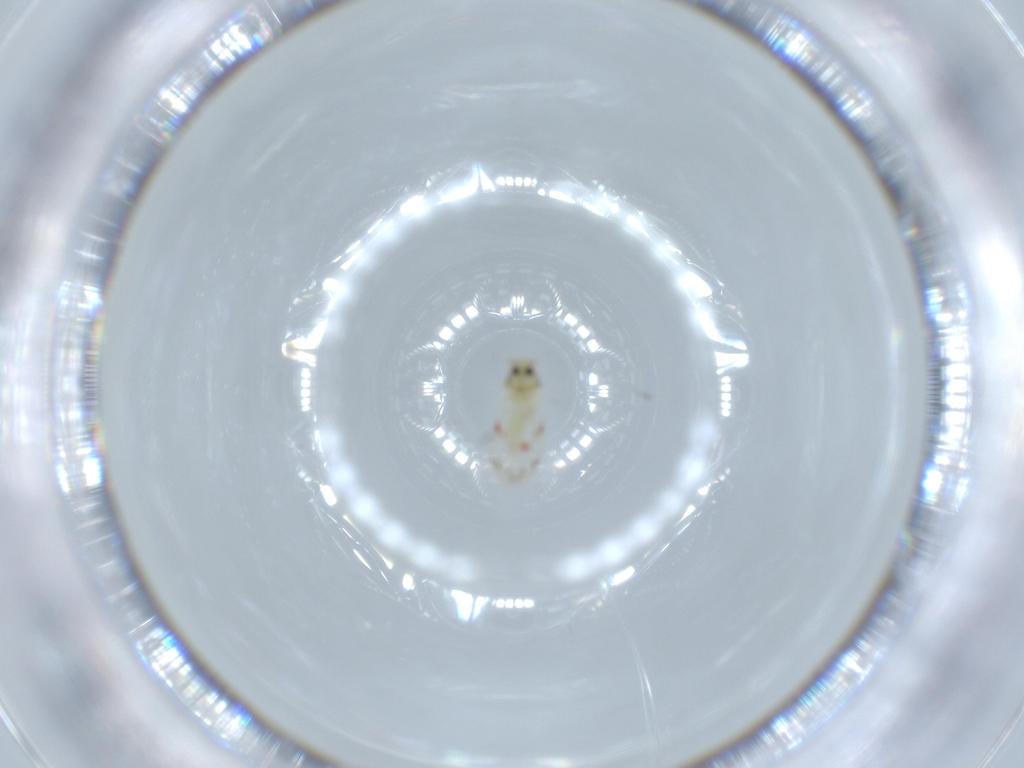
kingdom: Animalia
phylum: Arthropoda
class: Insecta
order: Hemiptera
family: Aleyrodidae
